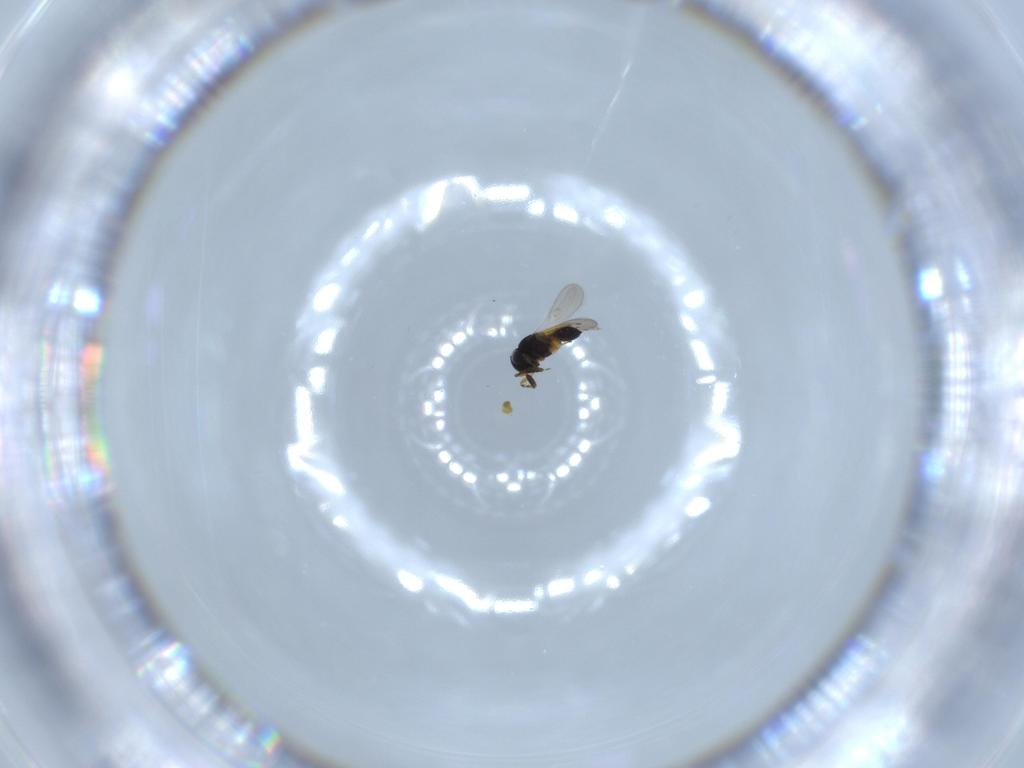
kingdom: Animalia
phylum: Arthropoda
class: Insecta
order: Hymenoptera
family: Scelionidae
